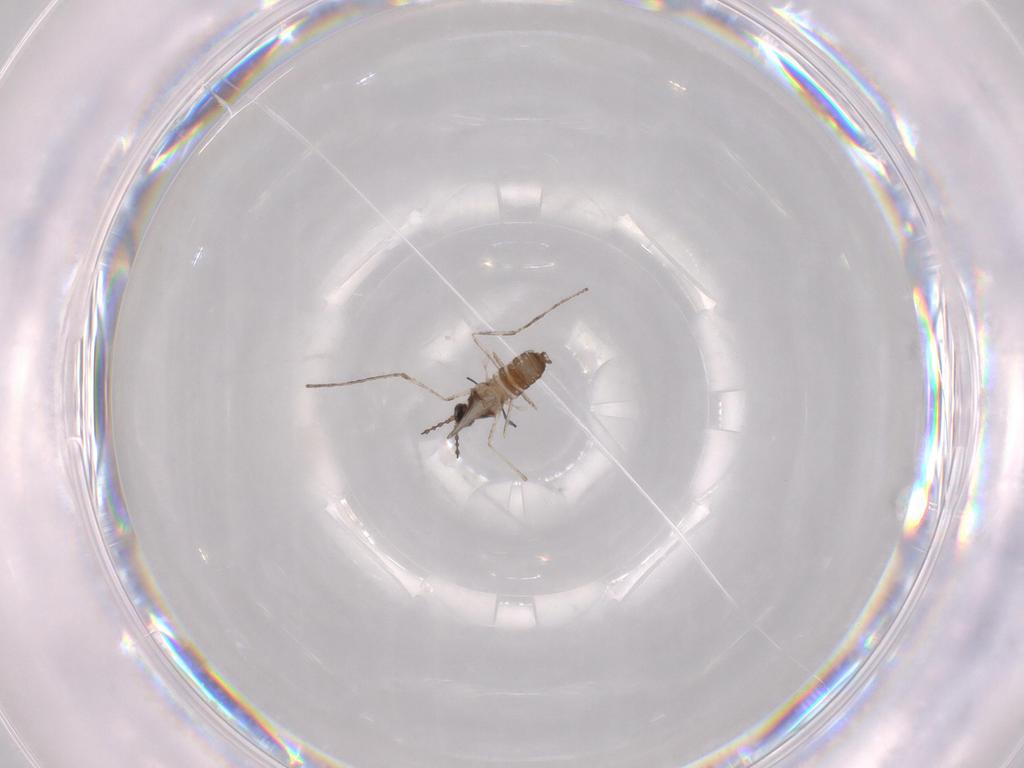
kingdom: Animalia
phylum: Arthropoda
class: Insecta
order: Diptera
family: Cecidomyiidae
